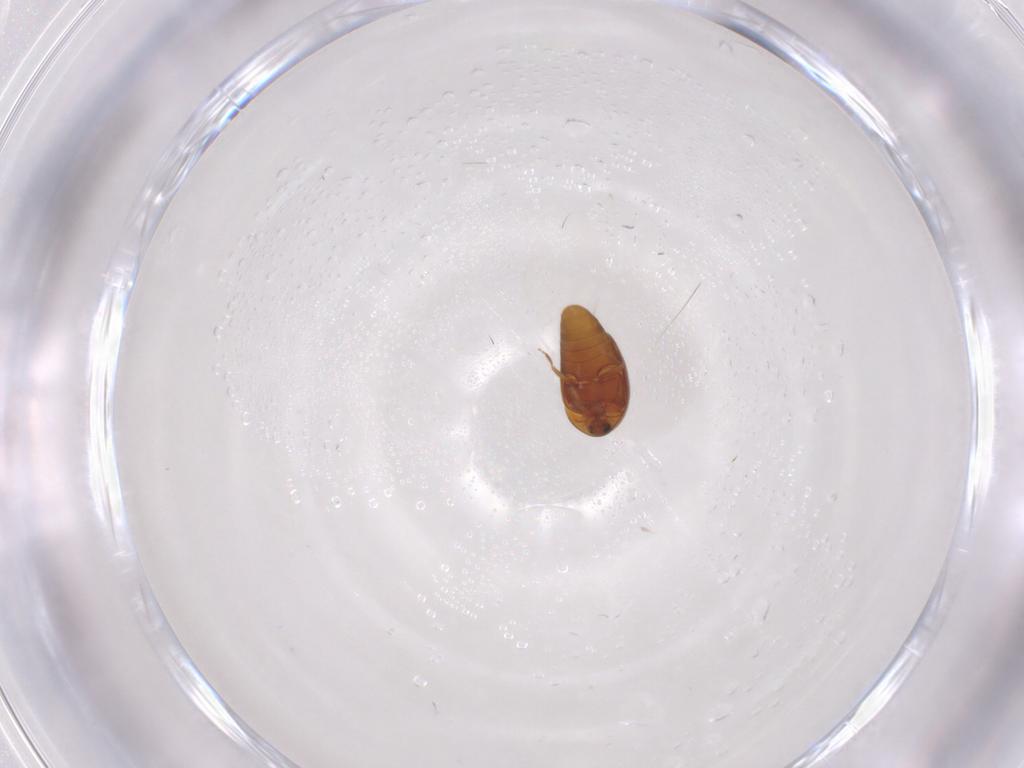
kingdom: Animalia
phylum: Arthropoda
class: Insecta
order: Coleoptera
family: Corylophidae
